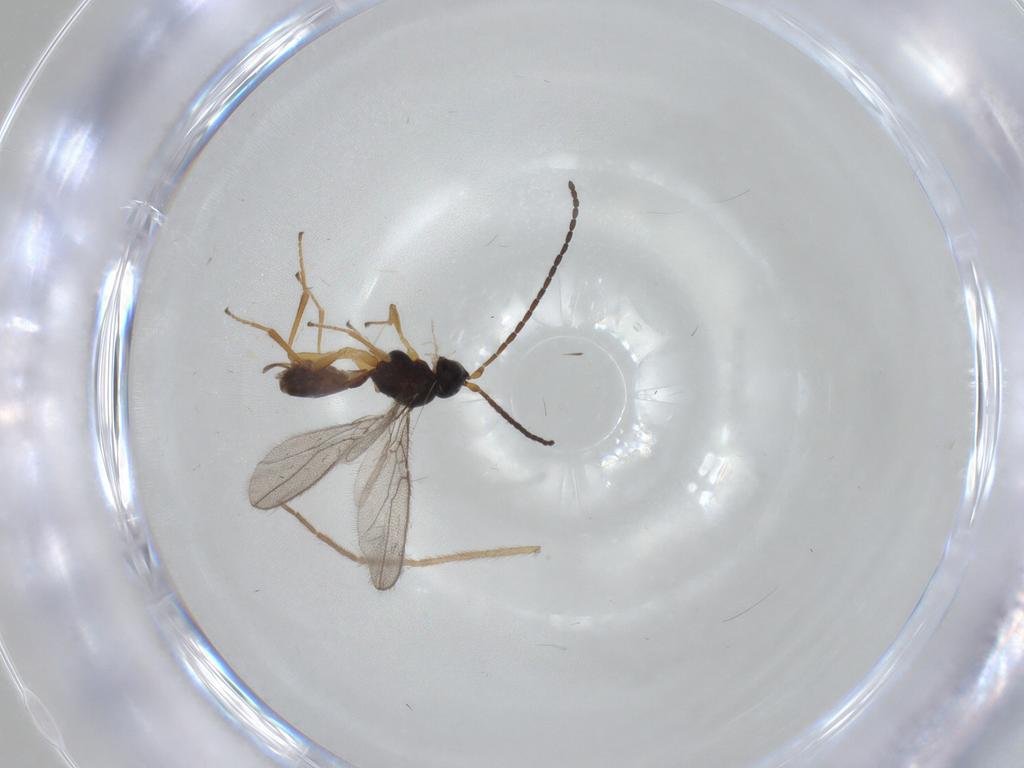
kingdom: Animalia
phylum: Arthropoda
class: Insecta
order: Hymenoptera
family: Braconidae
